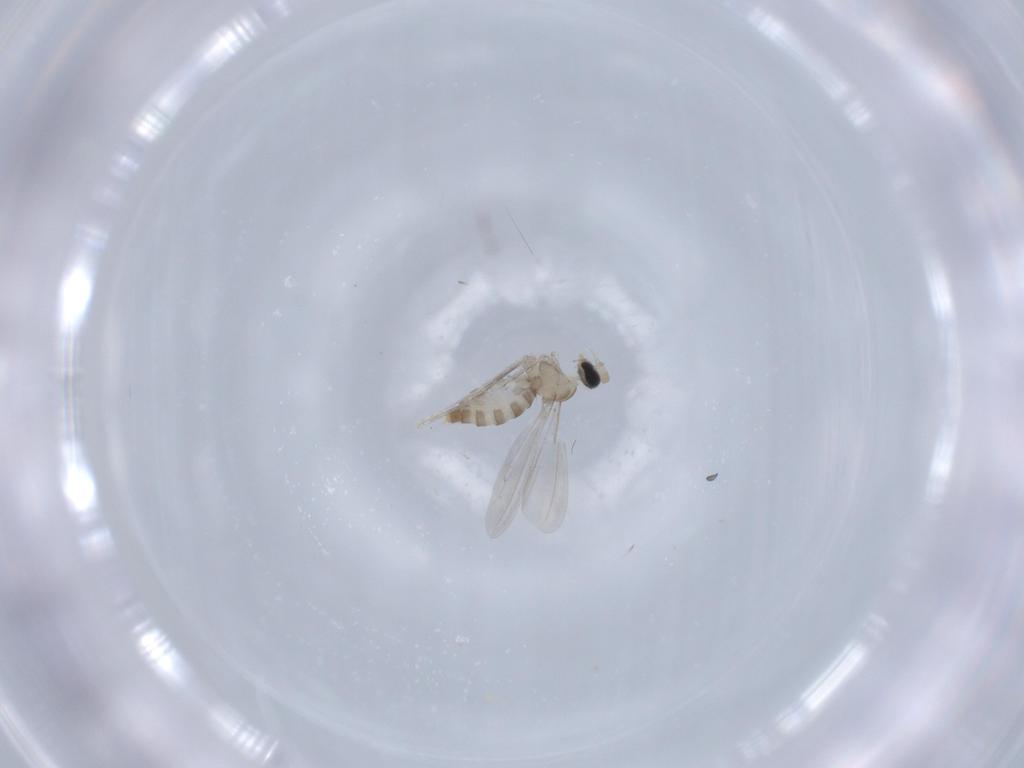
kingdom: Animalia
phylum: Arthropoda
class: Insecta
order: Diptera
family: Cecidomyiidae
